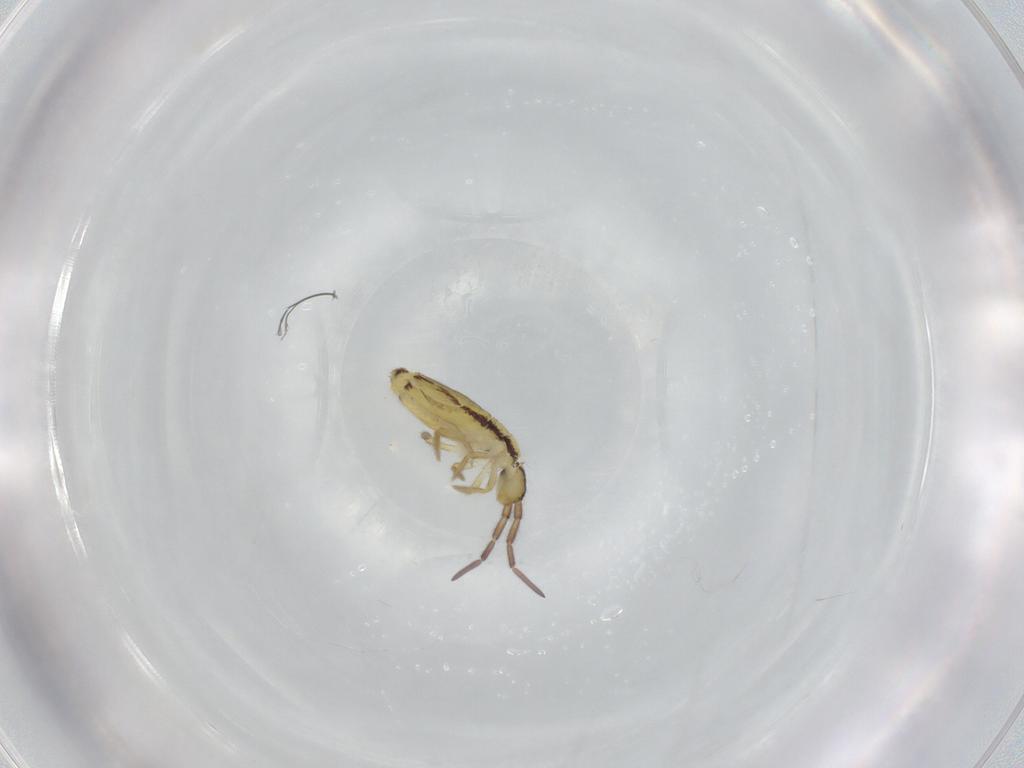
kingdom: Animalia
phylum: Arthropoda
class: Collembola
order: Entomobryomorpha
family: Entomobryidae
